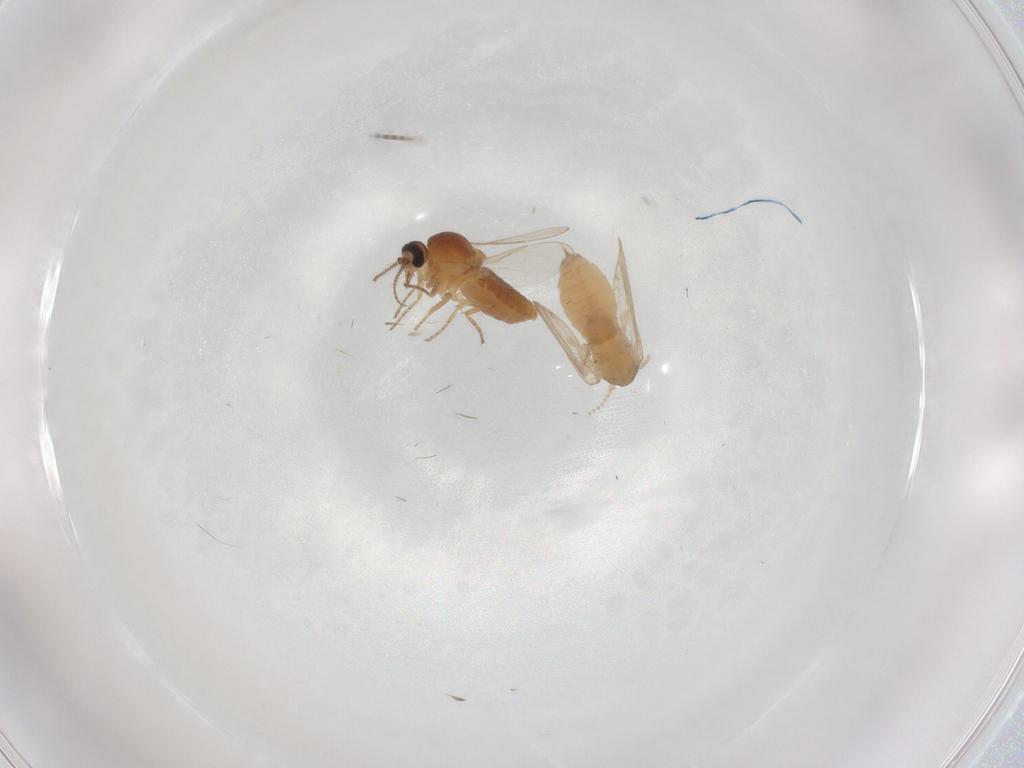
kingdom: Animalia
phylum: Arthropoda
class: Insecta
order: Diptera
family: Ceratopogonidae
